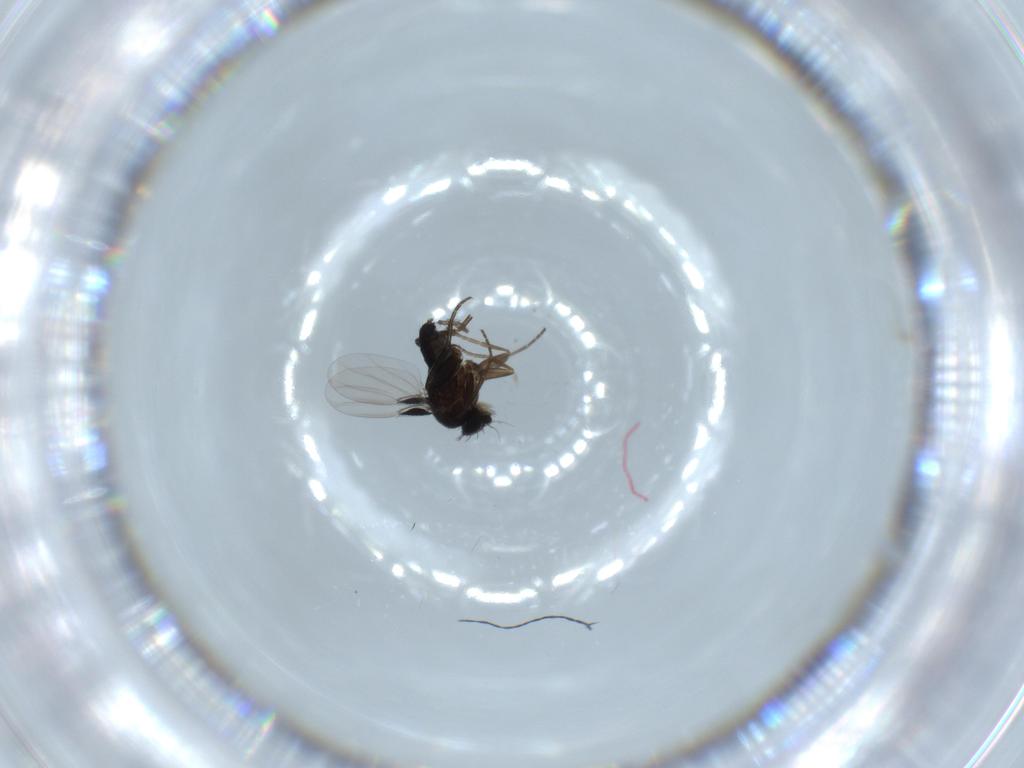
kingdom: Animalia
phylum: Arthropoda
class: Insecta
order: Diptera
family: Phoridae
